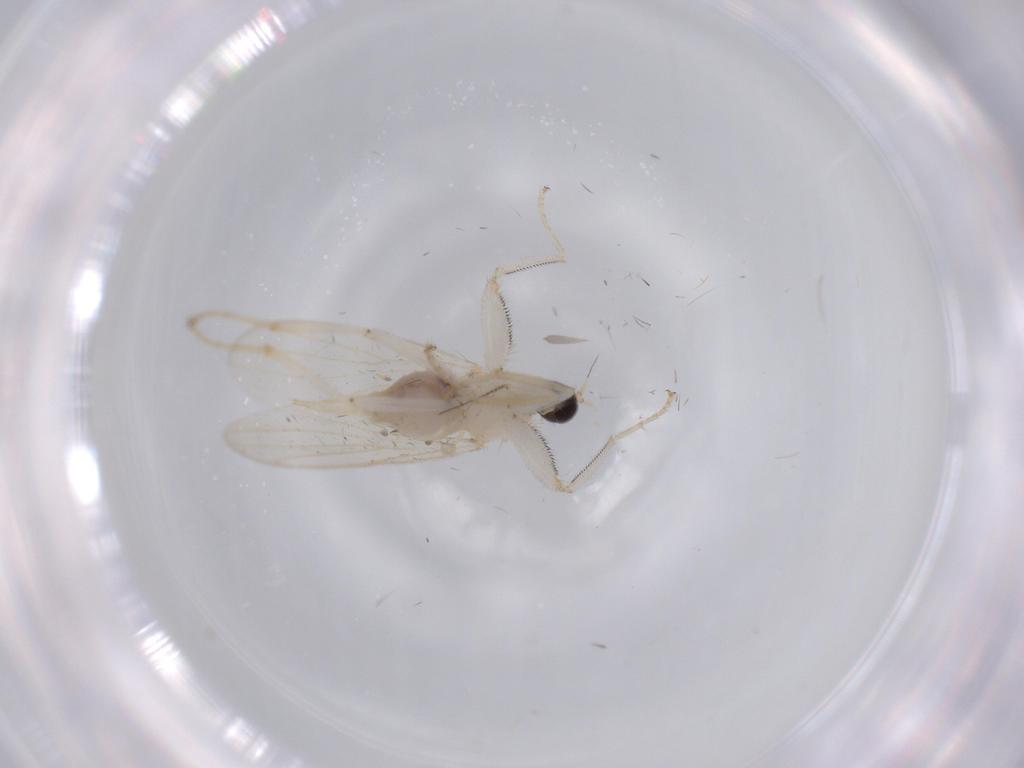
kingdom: Animalia
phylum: Arthropoda
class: Insecta
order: Diptera
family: Hybotidae
